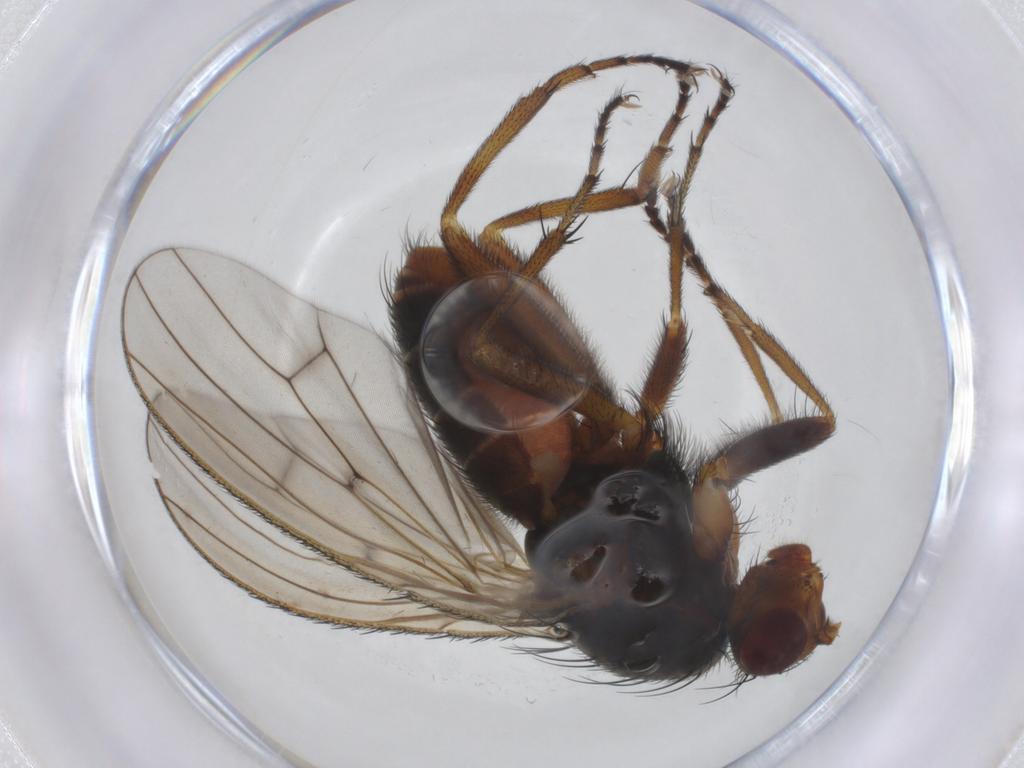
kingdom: Animalia
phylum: Arthropoda
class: Insecta
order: Diptera
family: Heleomyzidae
